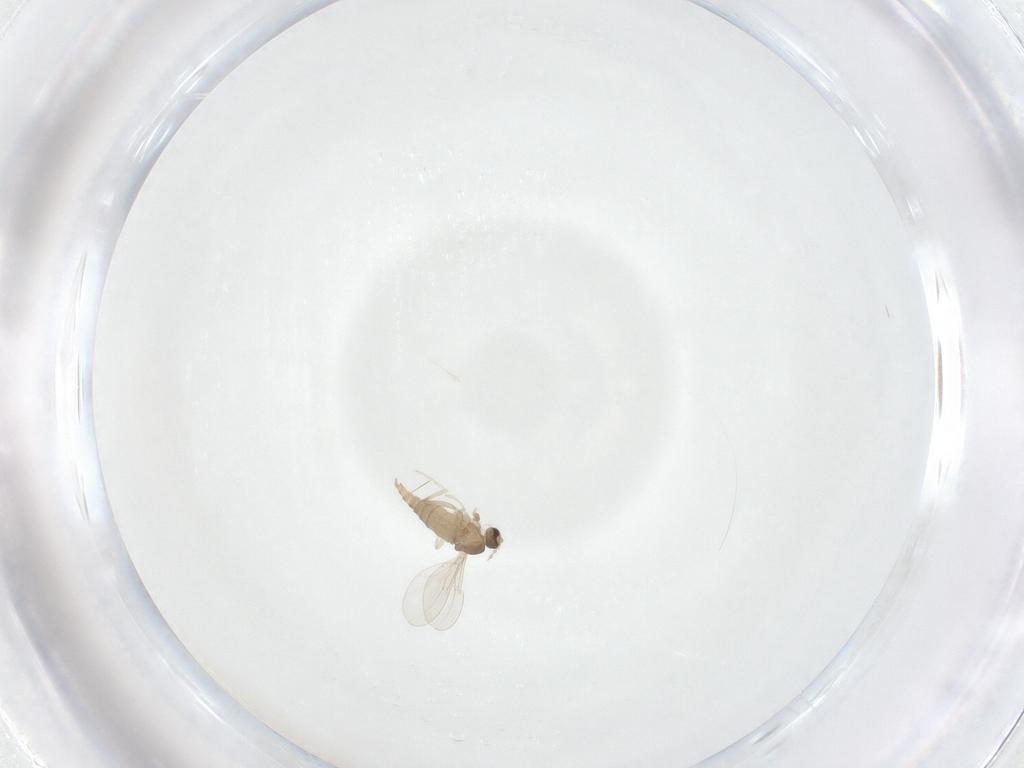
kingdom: Animalia
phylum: Arthropoda
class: Insecta
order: Diptera
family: Cecidomyiidae
